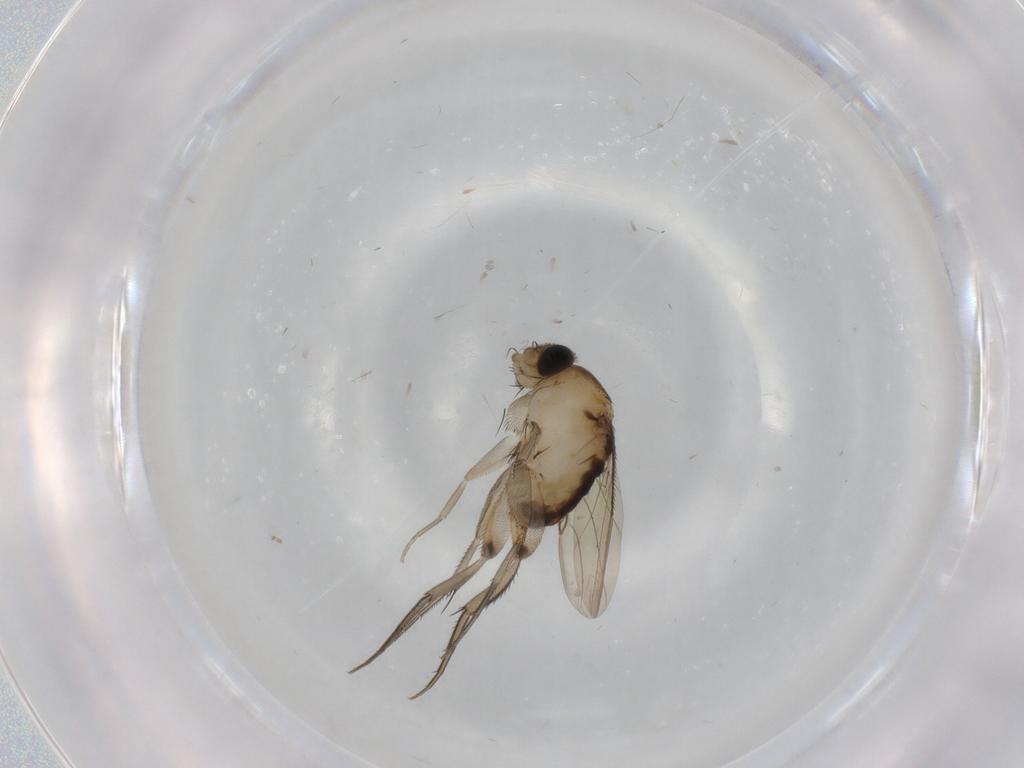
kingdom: Animalia
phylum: Arthropoda
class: Insecta
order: Diptera
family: Phoridae
